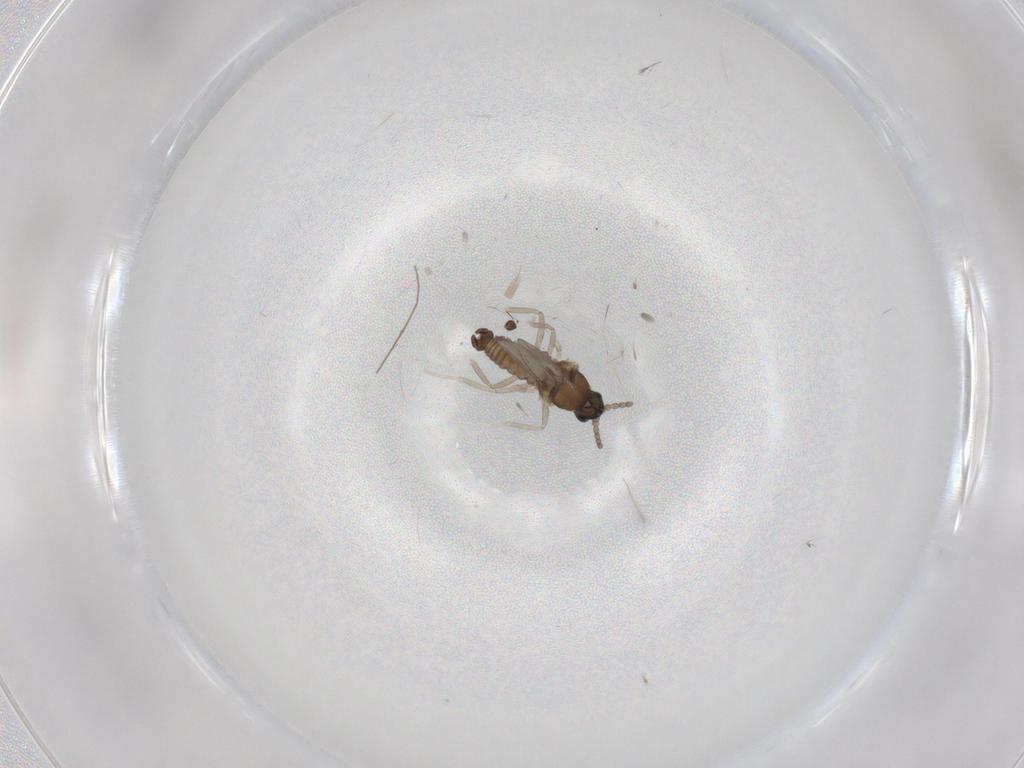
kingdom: Animalia
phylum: Arthropoda
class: Insecta
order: Diptera
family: Cecidomyiidae
